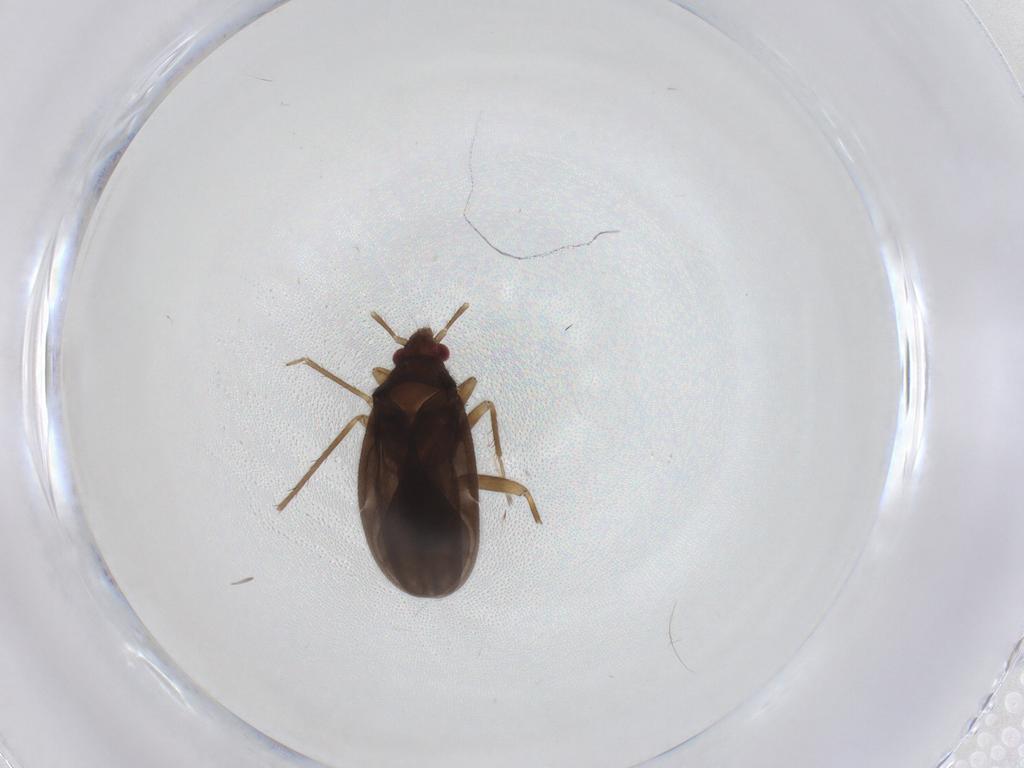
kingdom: Animalia
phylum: Arthropoda
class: Insecta
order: Hemiptera
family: Ceratocombidae
